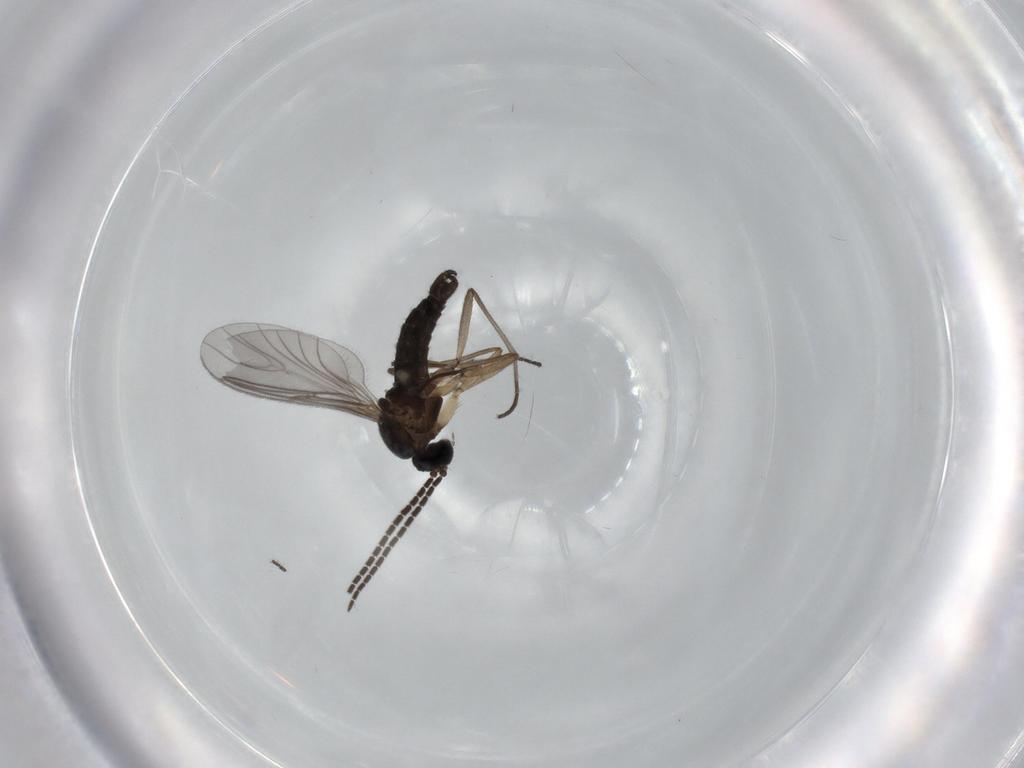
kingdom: Animalia
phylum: Arthropoda
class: Insecta
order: Diptera
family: Sciaridae
